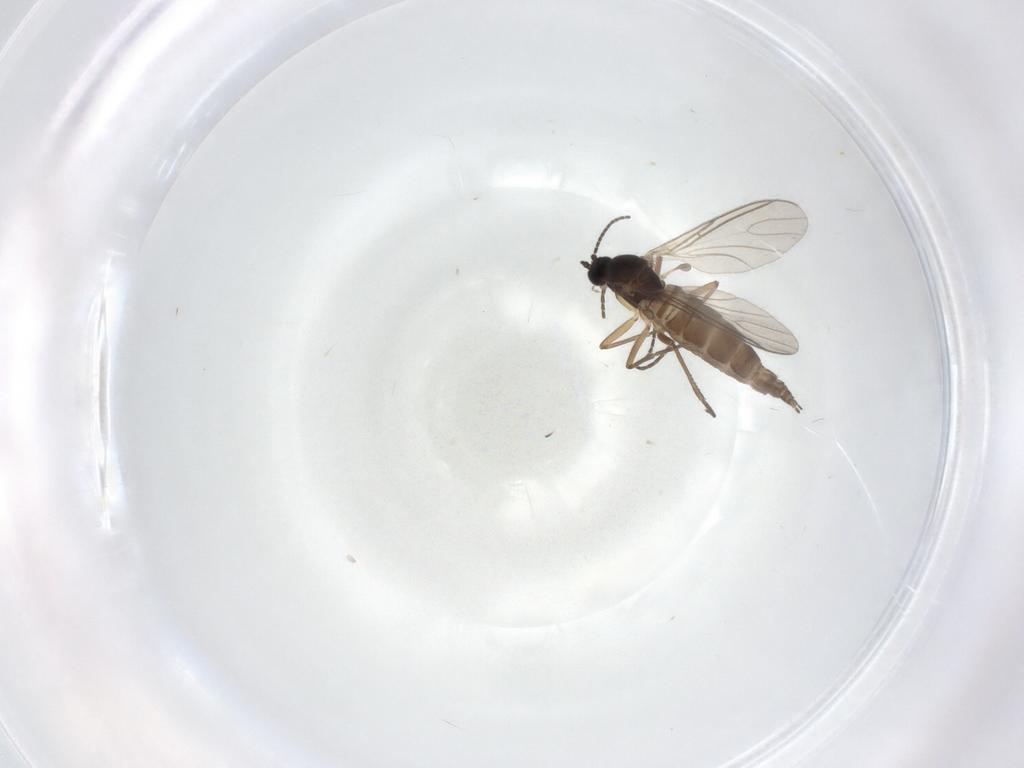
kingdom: Animalia
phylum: Arthropoda
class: Insecta
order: Diptera
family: Ceratopogonidae
